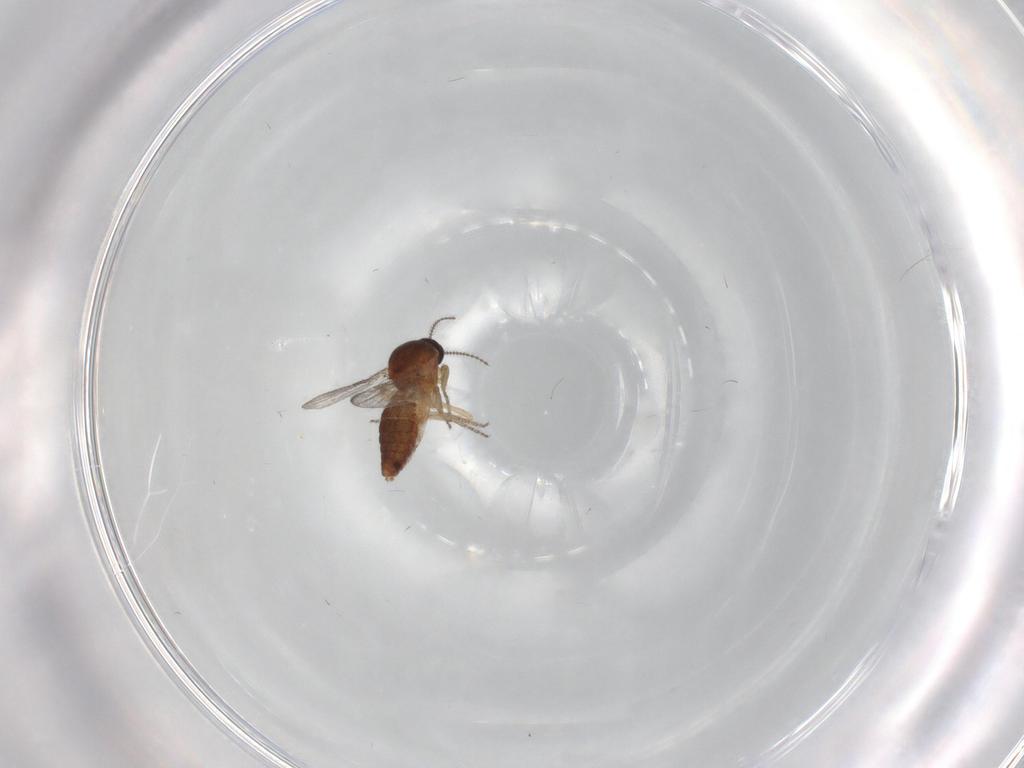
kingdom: Animalia
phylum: Arthropoda
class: Insecta
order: Diptera
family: Ceratopogonidae
